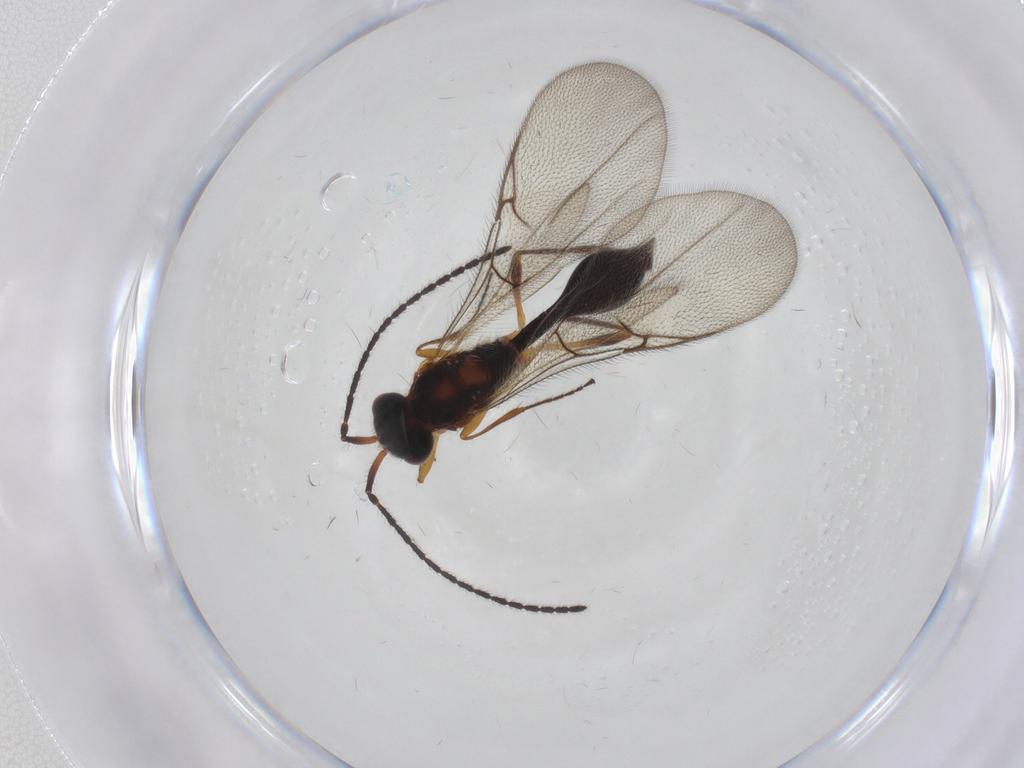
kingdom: Animalia
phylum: Arthropoda
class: Insecta
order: Hymenoptera
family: Diapriidae
